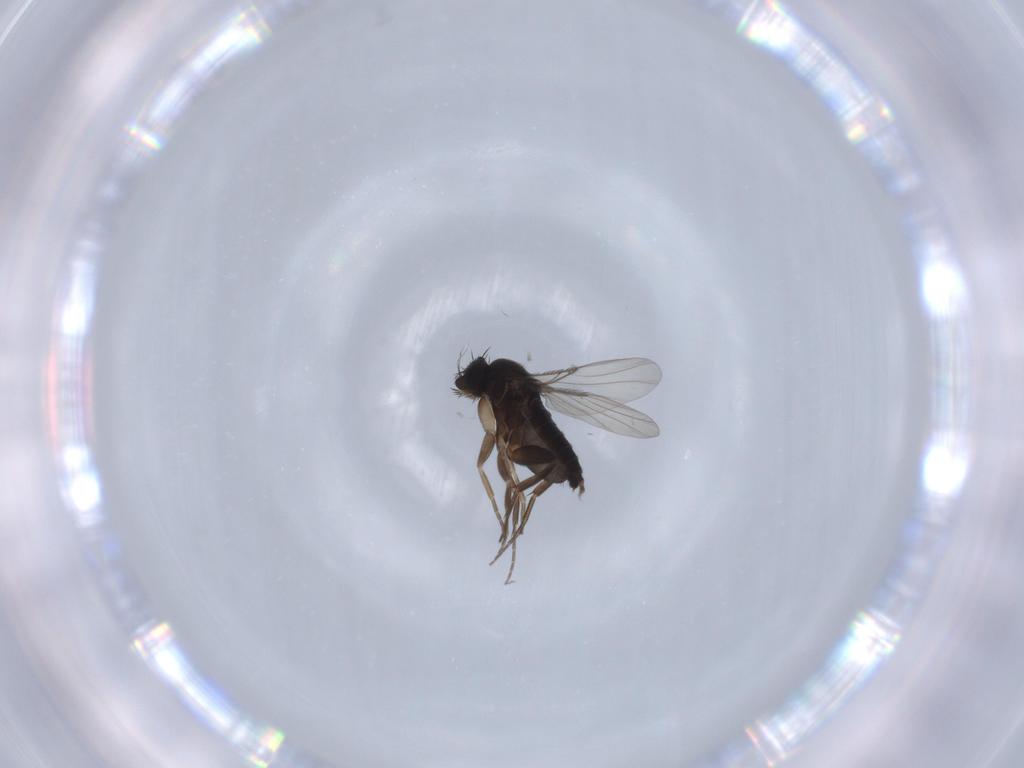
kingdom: Animalia
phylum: Arthropoda
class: Insecta
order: Diptera
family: Phoridae
